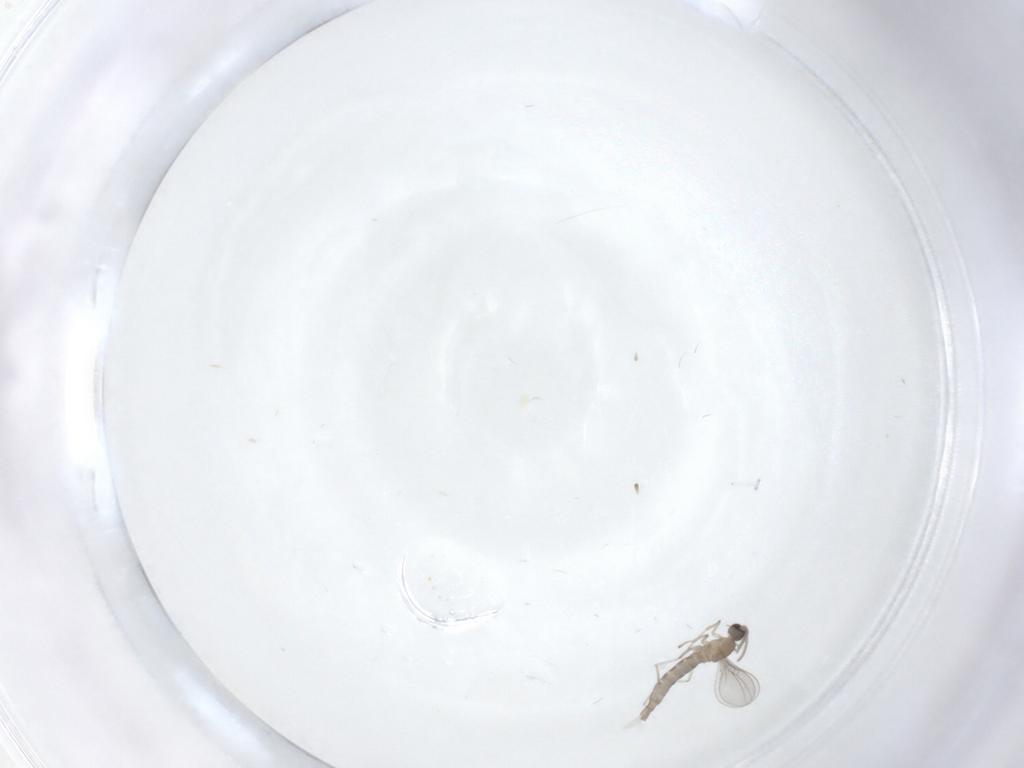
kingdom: Animalia
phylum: Arthropoda
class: Insecta
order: Diptera
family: Cecidomyiidae
